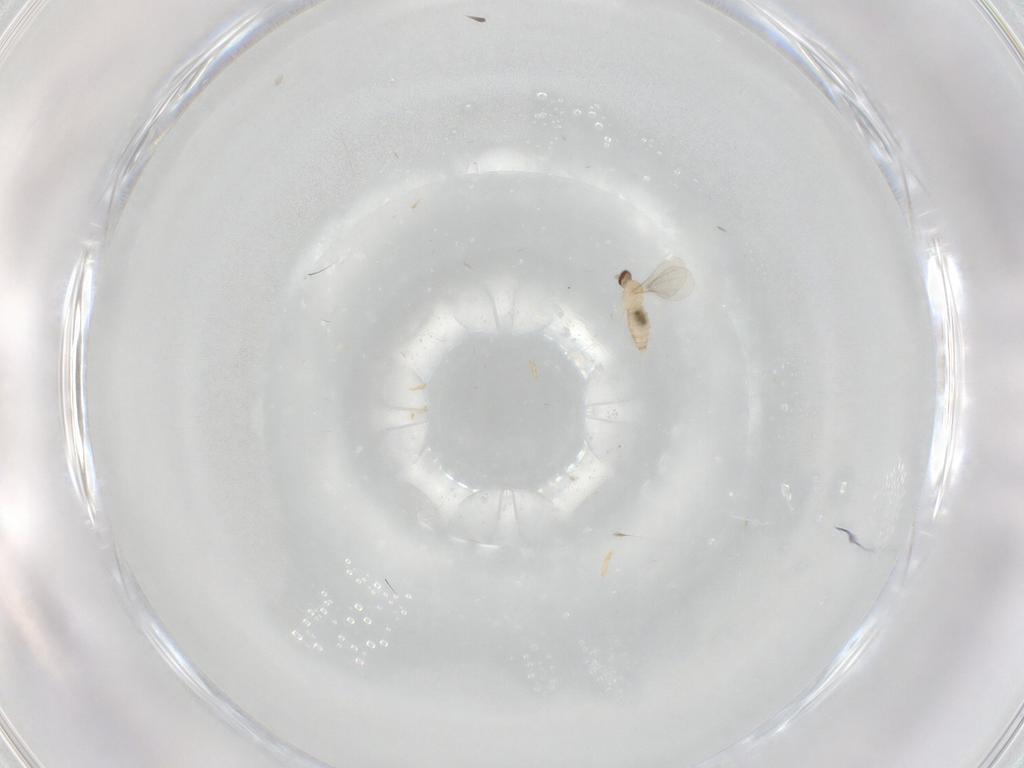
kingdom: Animalia
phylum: Arthropoda
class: Insecta
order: Diptera
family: Cecidomyiidae
